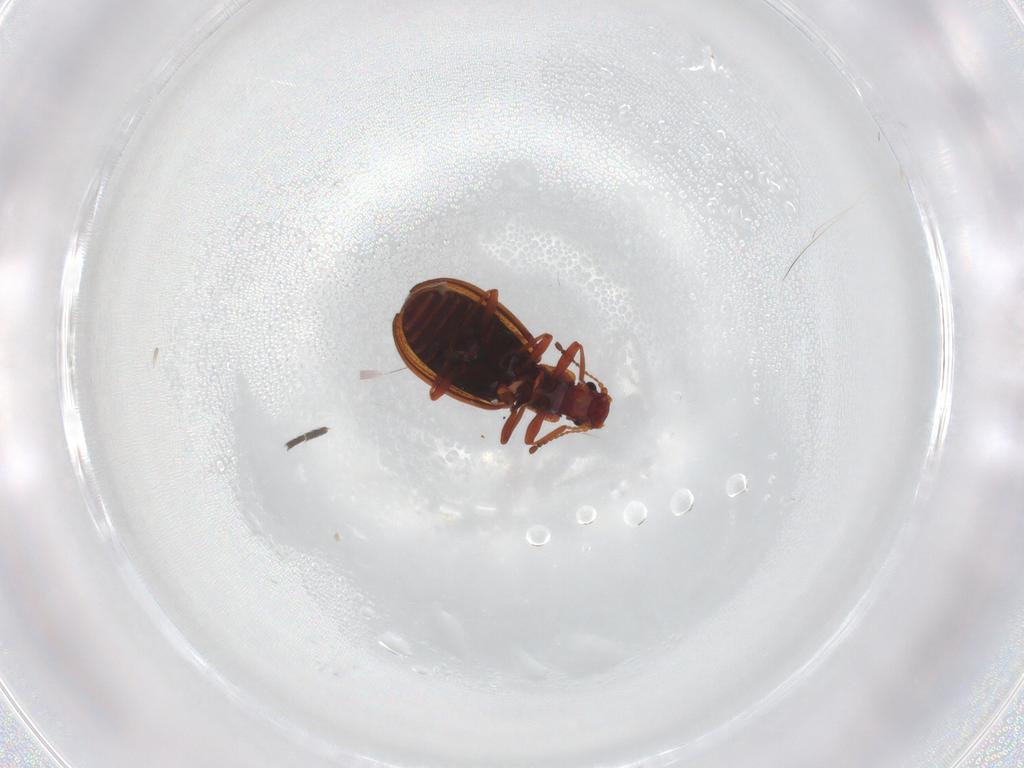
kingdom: Animalia
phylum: Arthropoda
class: Insecta
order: Coleoptera
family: Latridiidae
